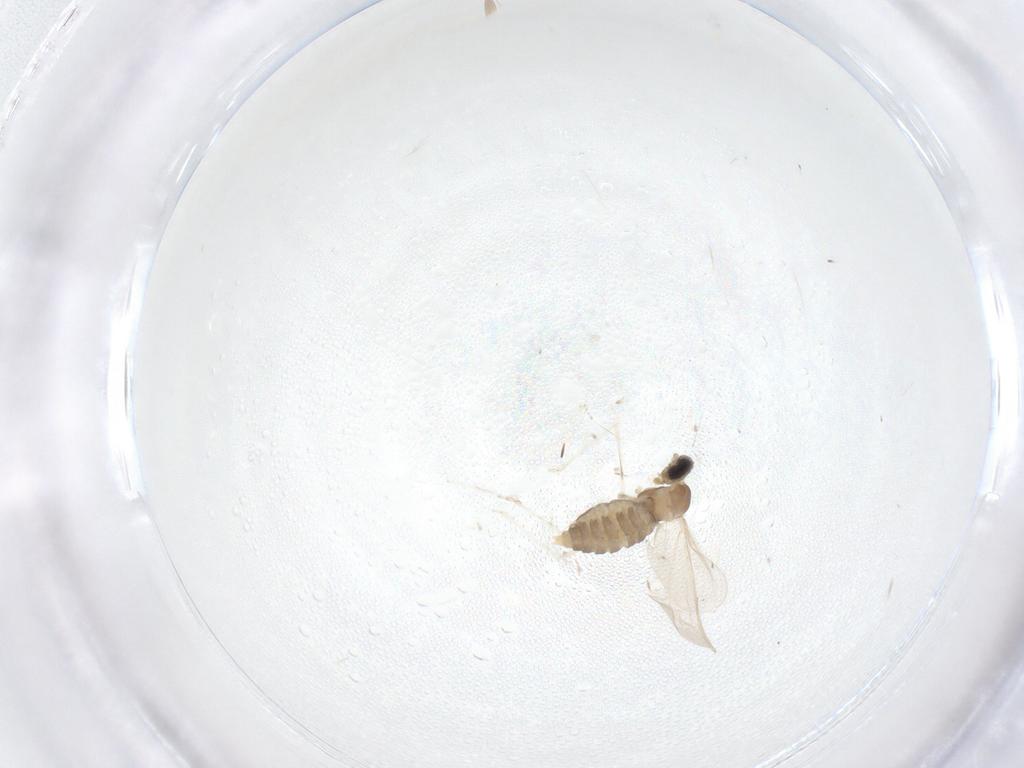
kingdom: Animalia
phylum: Arthropoda
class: Insecta
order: Diptera
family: Cecidomyiidae
